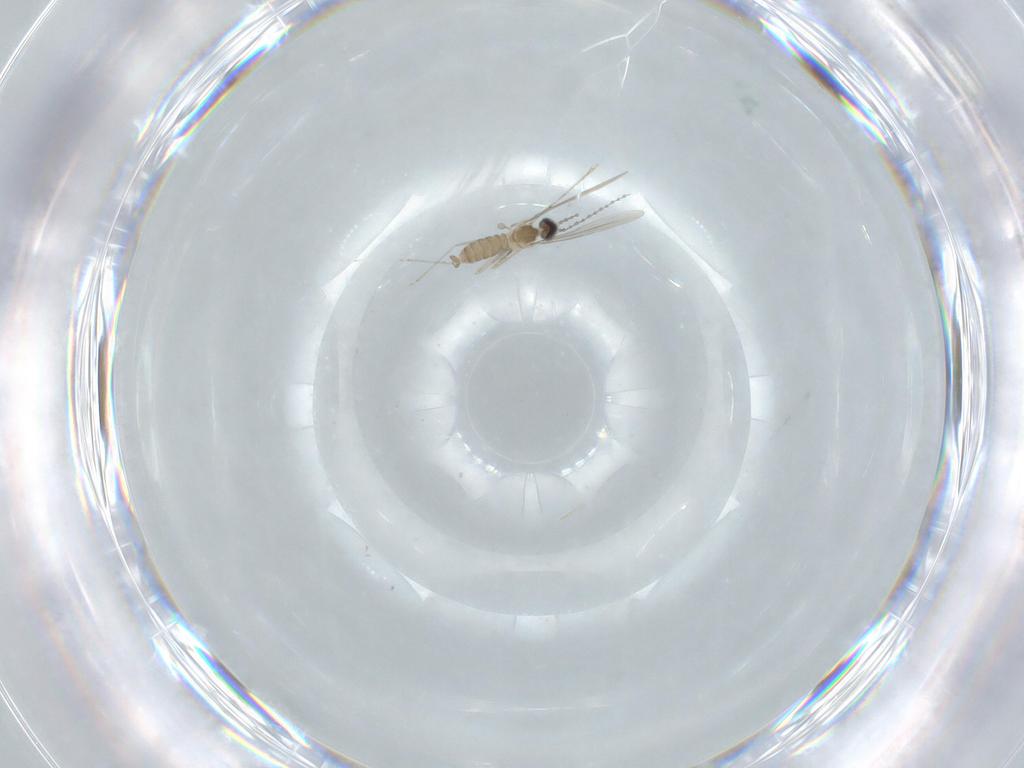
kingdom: Animalia
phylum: Arthropoda
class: Insecta
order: Diptera
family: Cecidomyiidae
